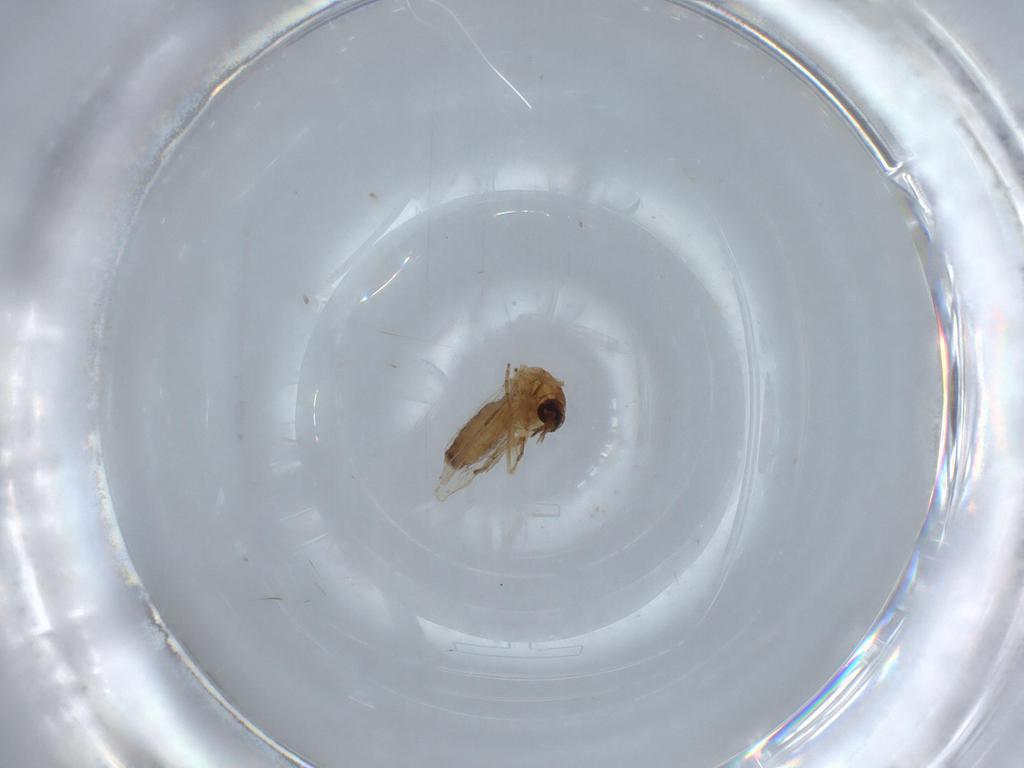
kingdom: Animalia
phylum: Arthropoda
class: Insecta
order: Diptera
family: Ceratopogonidae
